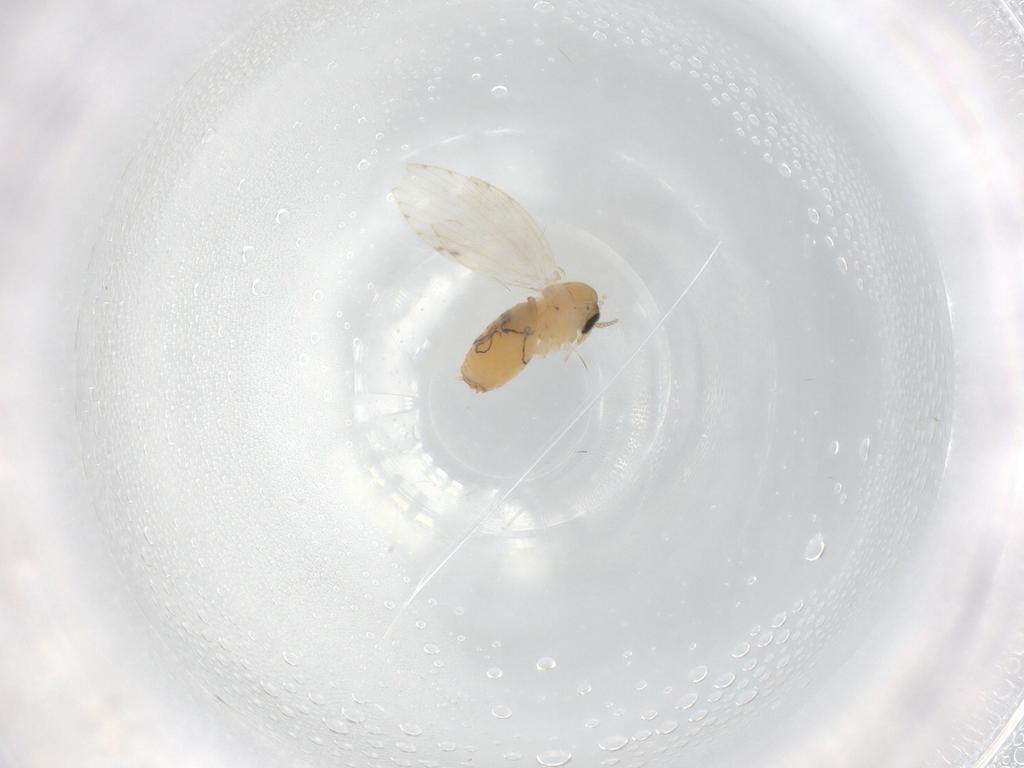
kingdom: Animalia
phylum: Arthropoda
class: Insecta
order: Diptera
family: Psychodidae
